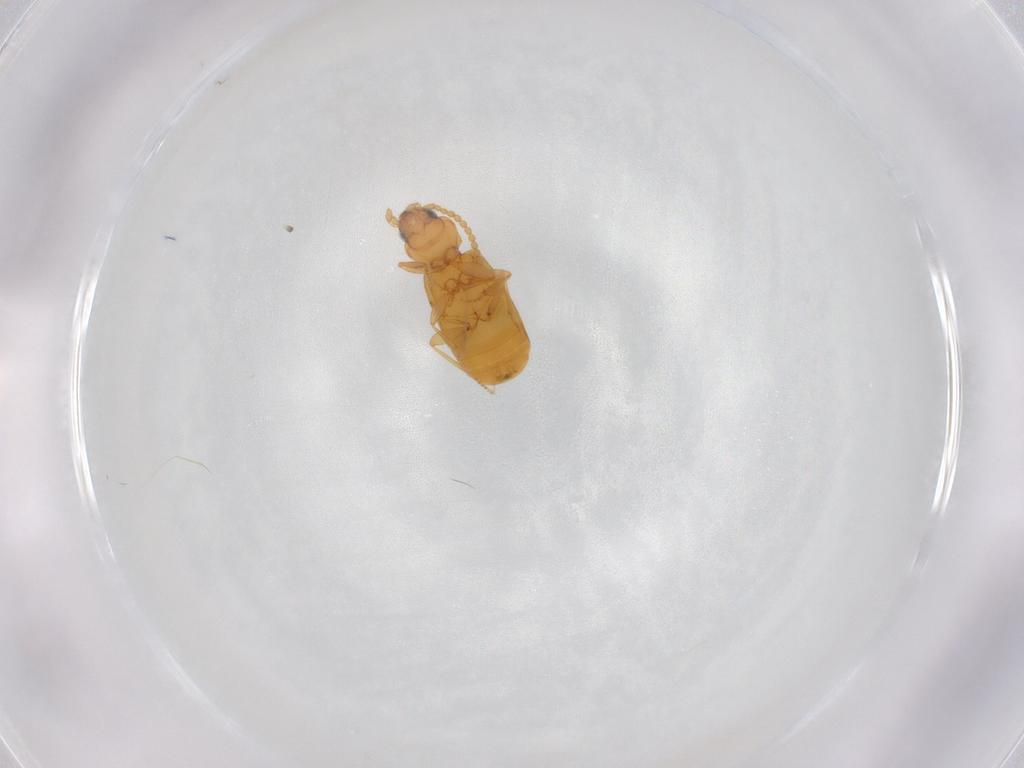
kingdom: Animalia
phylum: Arthropoda
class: Insecta
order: Coleoptera
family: Carabidae
